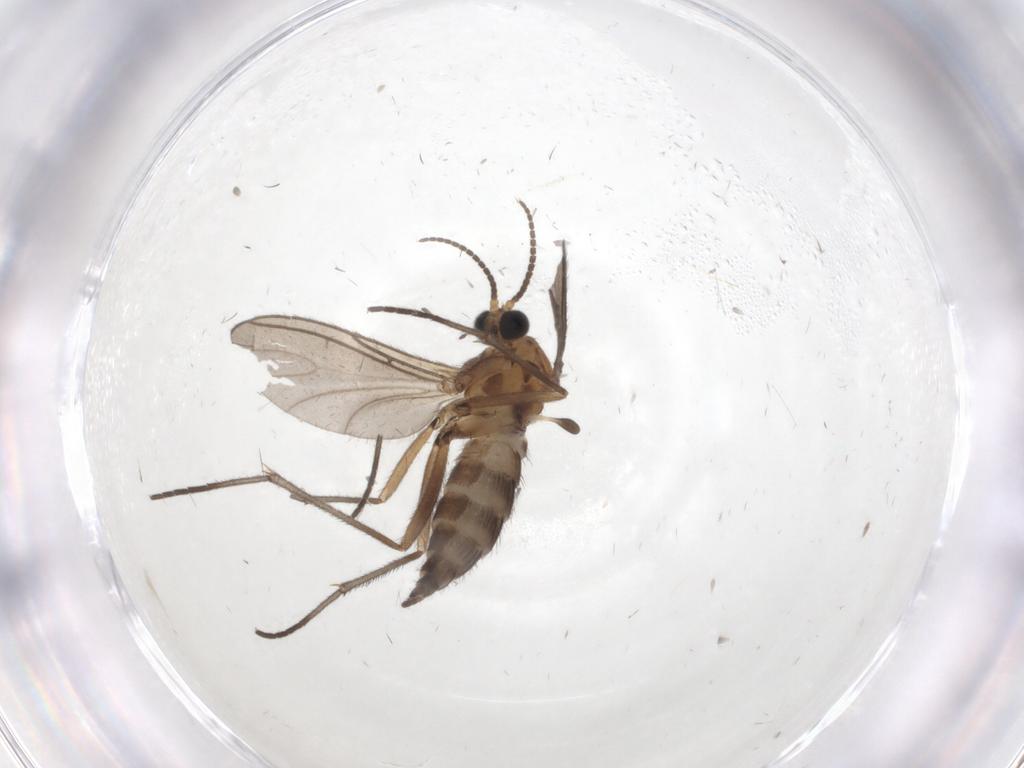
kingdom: Animalia
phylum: Arthropoda
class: Insecta
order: Diptera
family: Sciaridae
